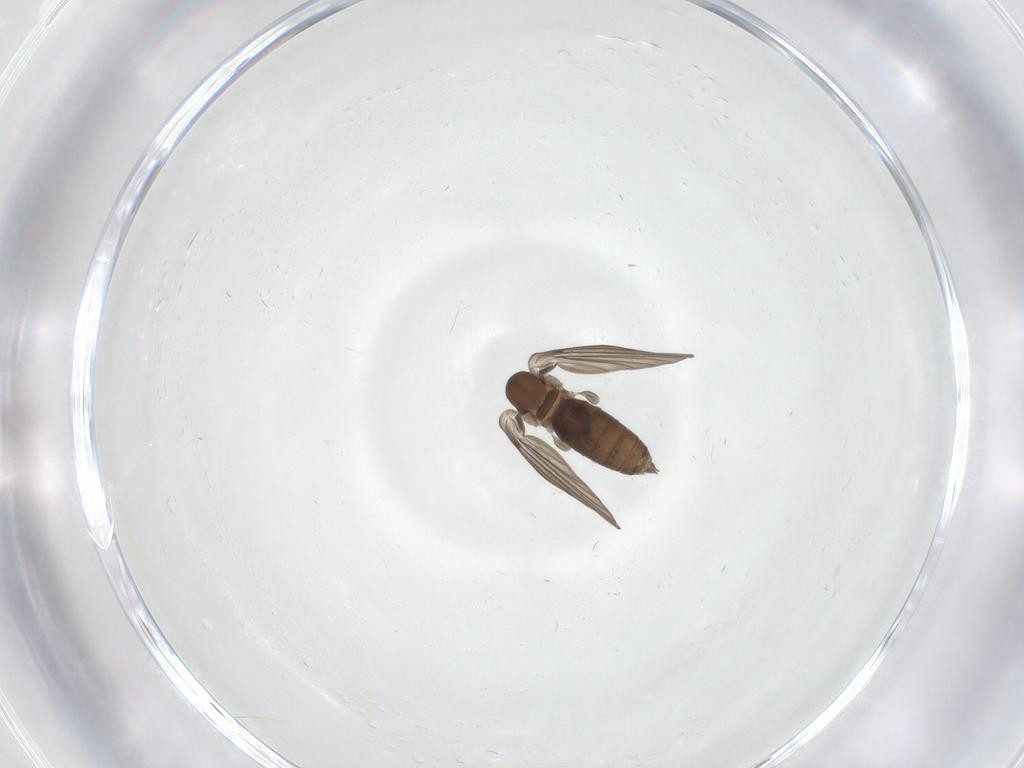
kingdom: Animalia
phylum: Arthropoda
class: Insecta
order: Diptera
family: Psychodidae
